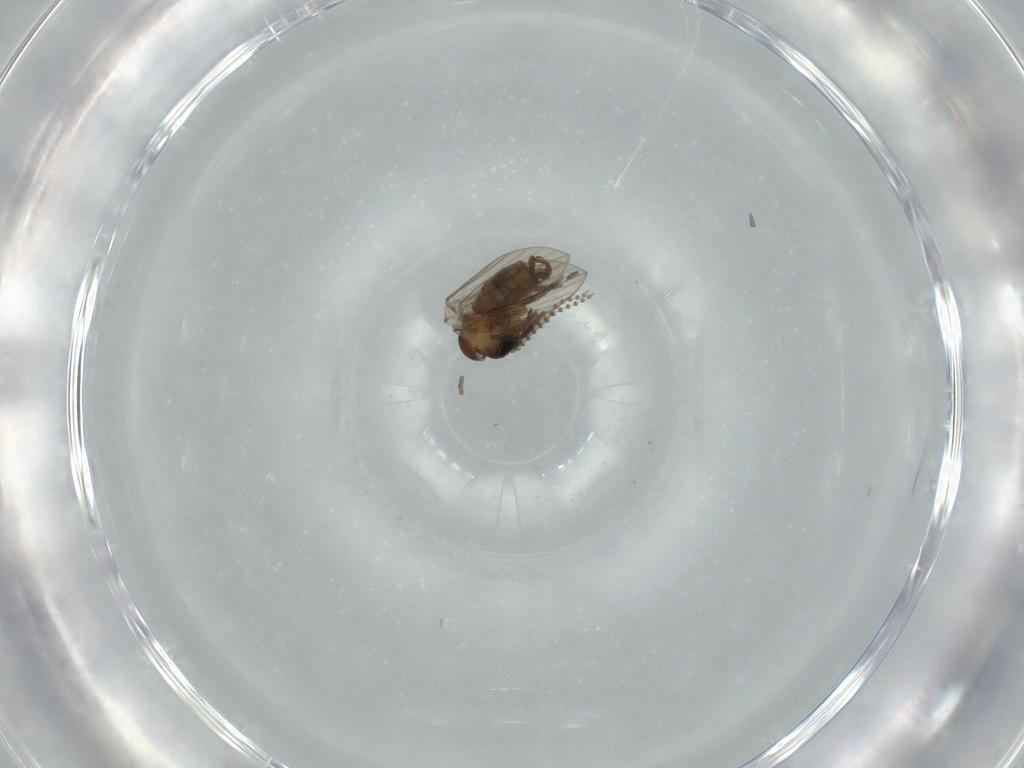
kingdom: Animalia
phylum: Arthropoda
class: Insecta
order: Diptera
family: Psychodidae
